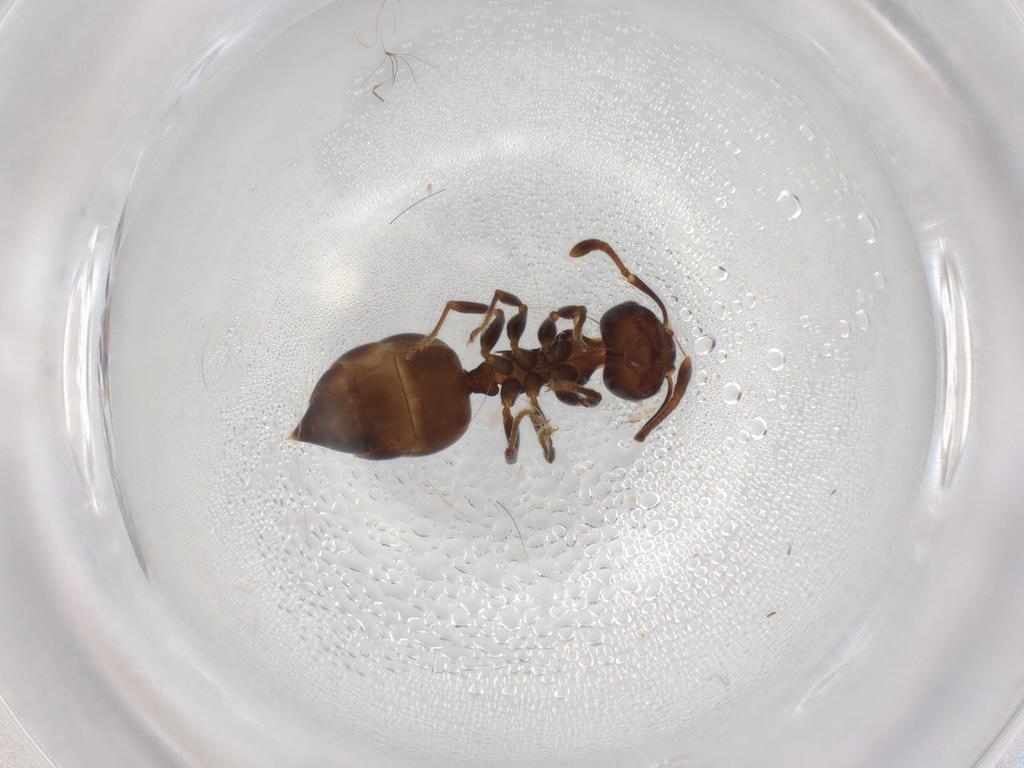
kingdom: Animalia
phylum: Arthropoda
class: Insecta
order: Hymenoptera
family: Formicidae
